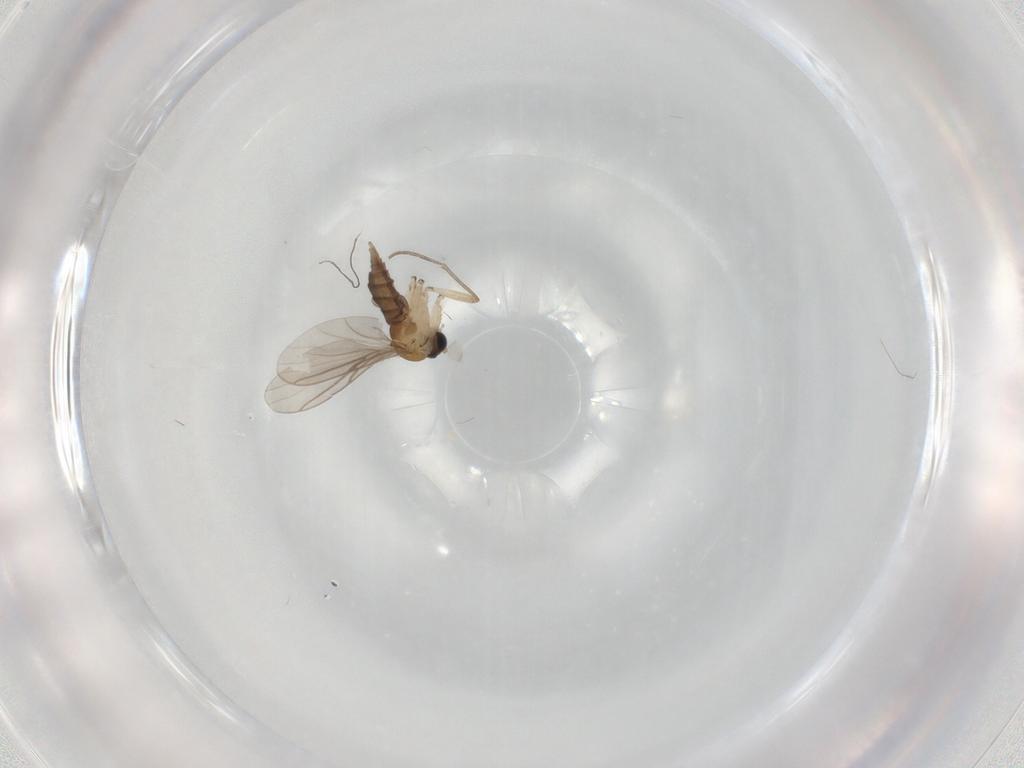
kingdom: Animalia
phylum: Arthropoda
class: Insecta
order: Diptera
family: Sciaridae
